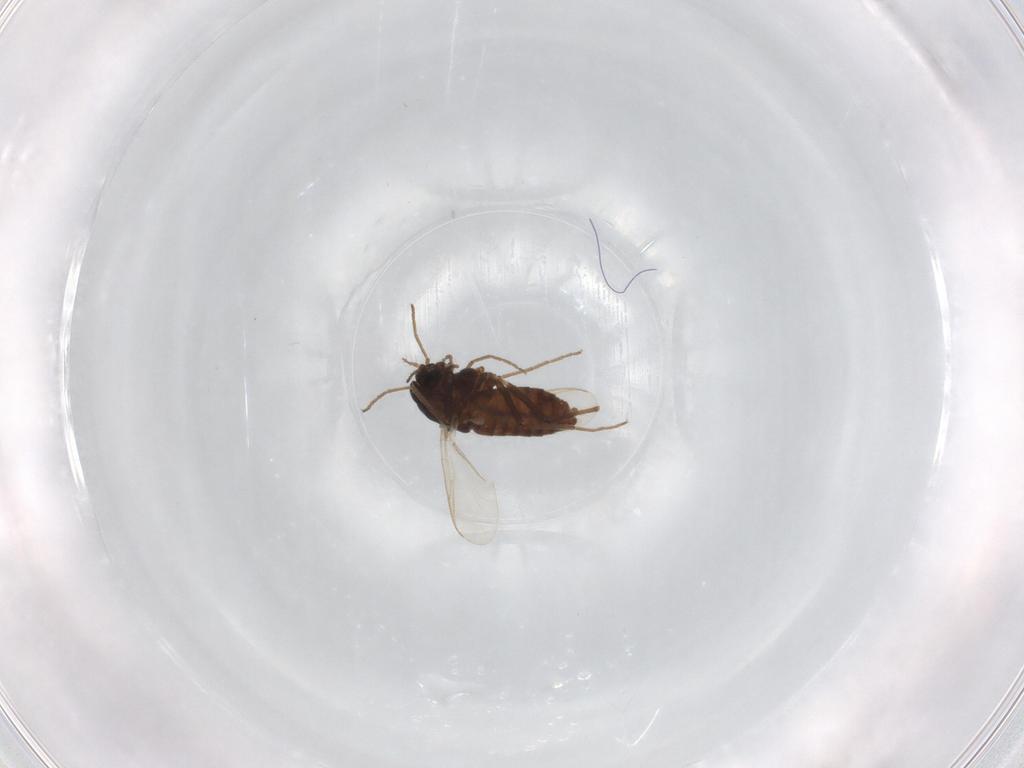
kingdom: Animalia
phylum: Arthropoda
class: Insecta
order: Diptera
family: Chironomidae
